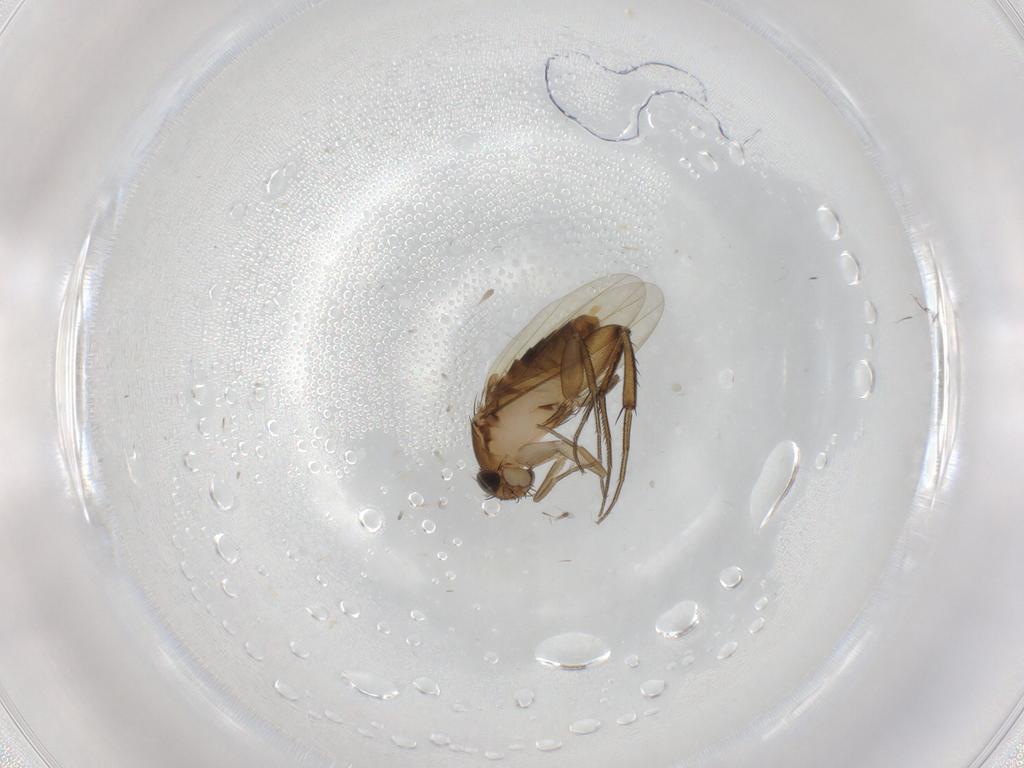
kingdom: Animalia
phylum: Arthropoda
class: Insecta
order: Diptera
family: Phoridae
